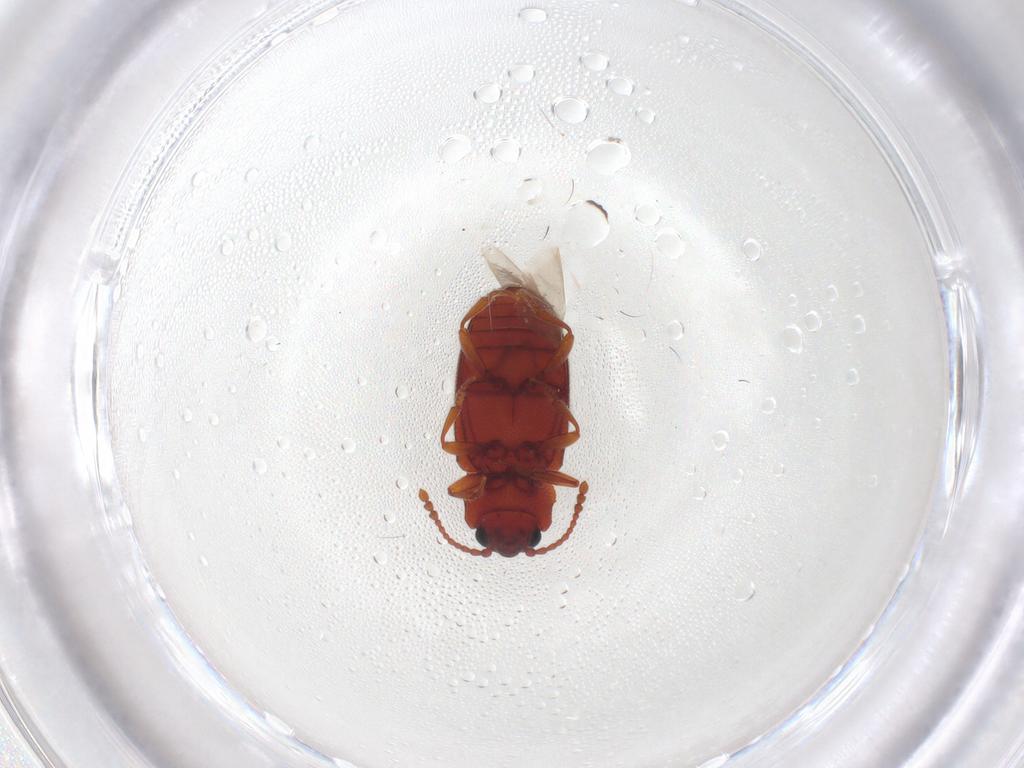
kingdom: Animalia
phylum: Arthropoda
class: Insecta
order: Coleoptera
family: Cryptophagidae
